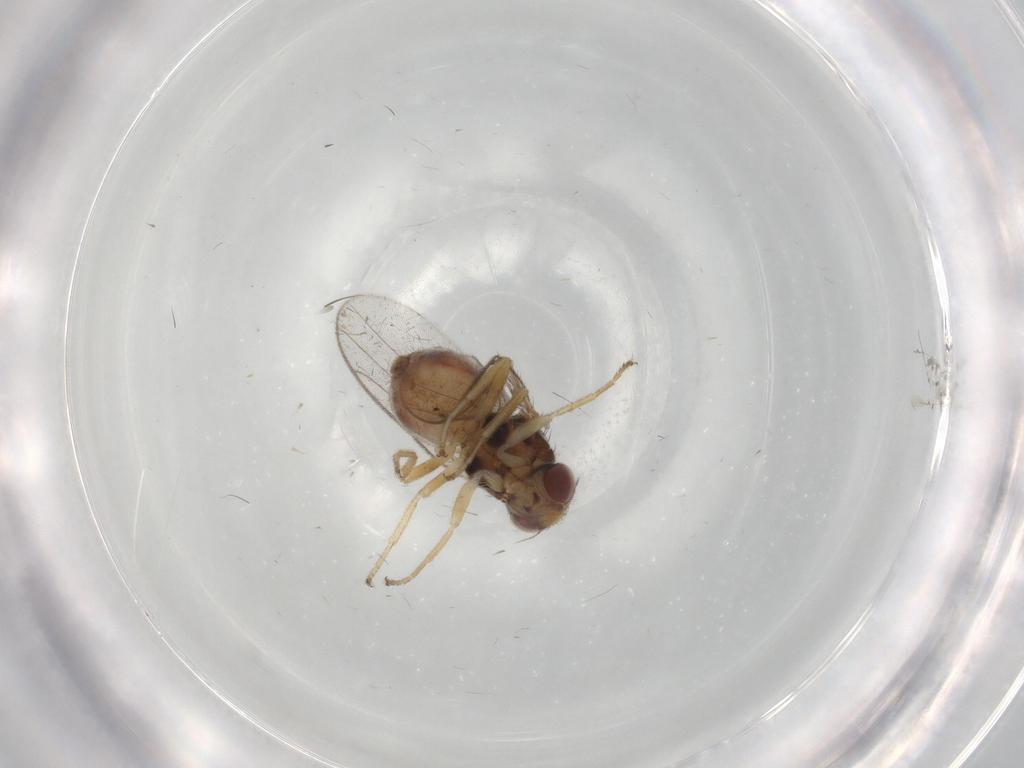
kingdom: Animalia
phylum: Arthropoda
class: Insecta
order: Diptera
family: Chloropidae
